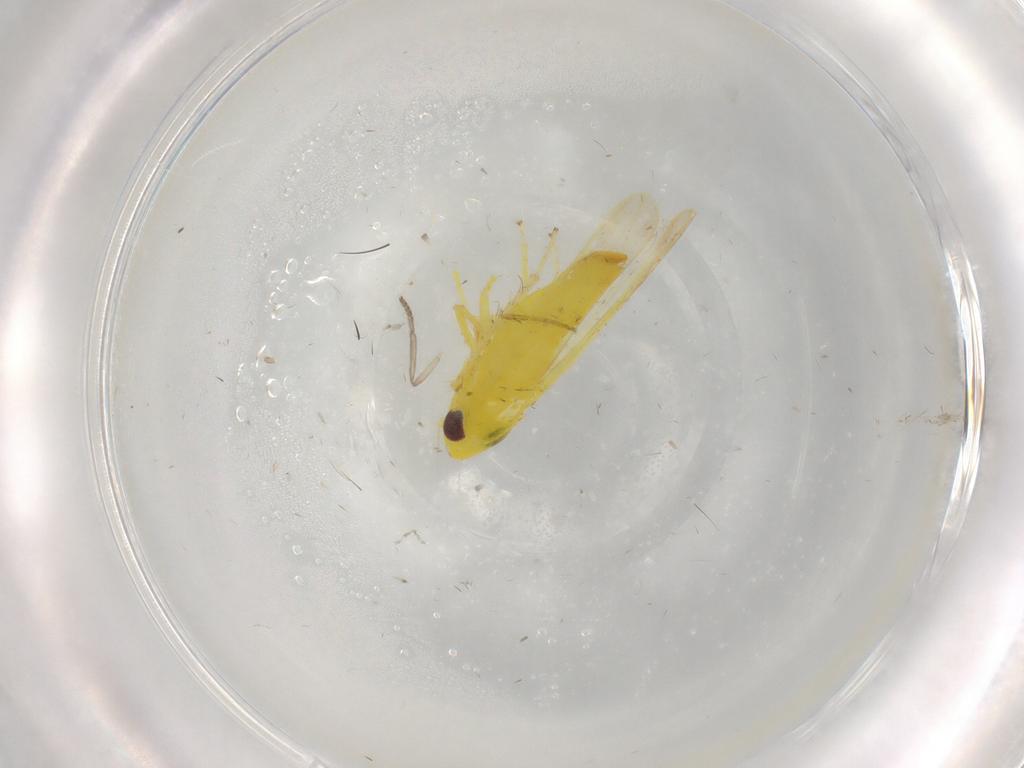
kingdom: Animalia
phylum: Arthropoda
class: Insecta
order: Hemiptera
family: Cicadellidae
